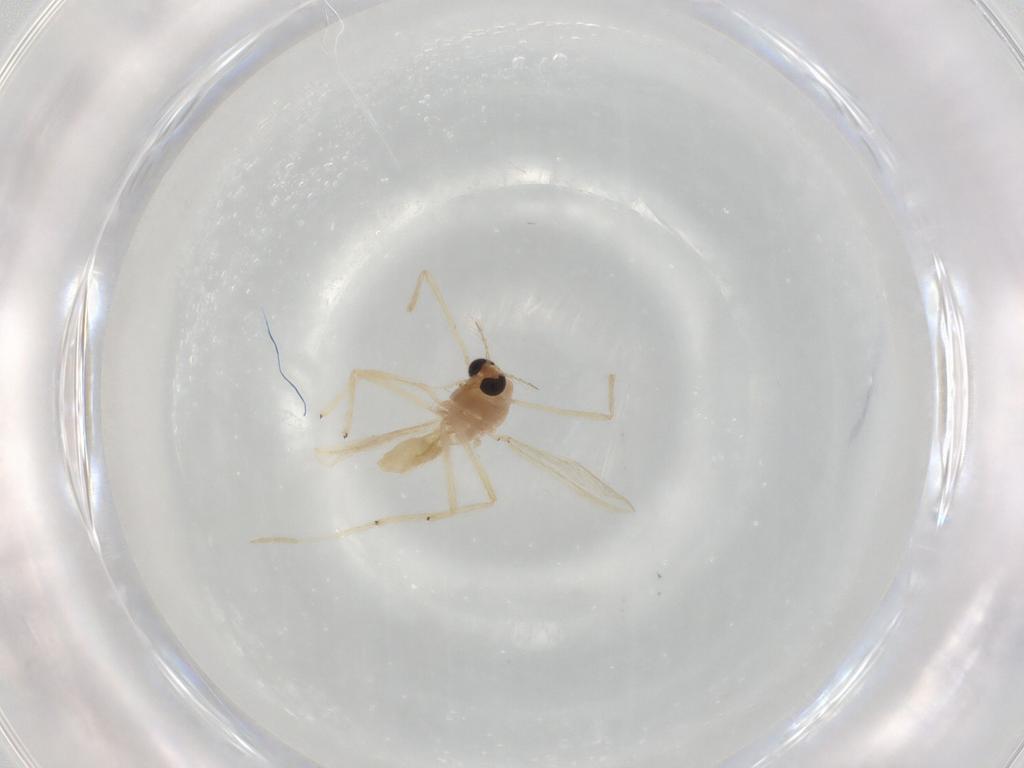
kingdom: Animalia
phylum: Arthropoda
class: Insecta
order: Diptera
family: Chironomidae
